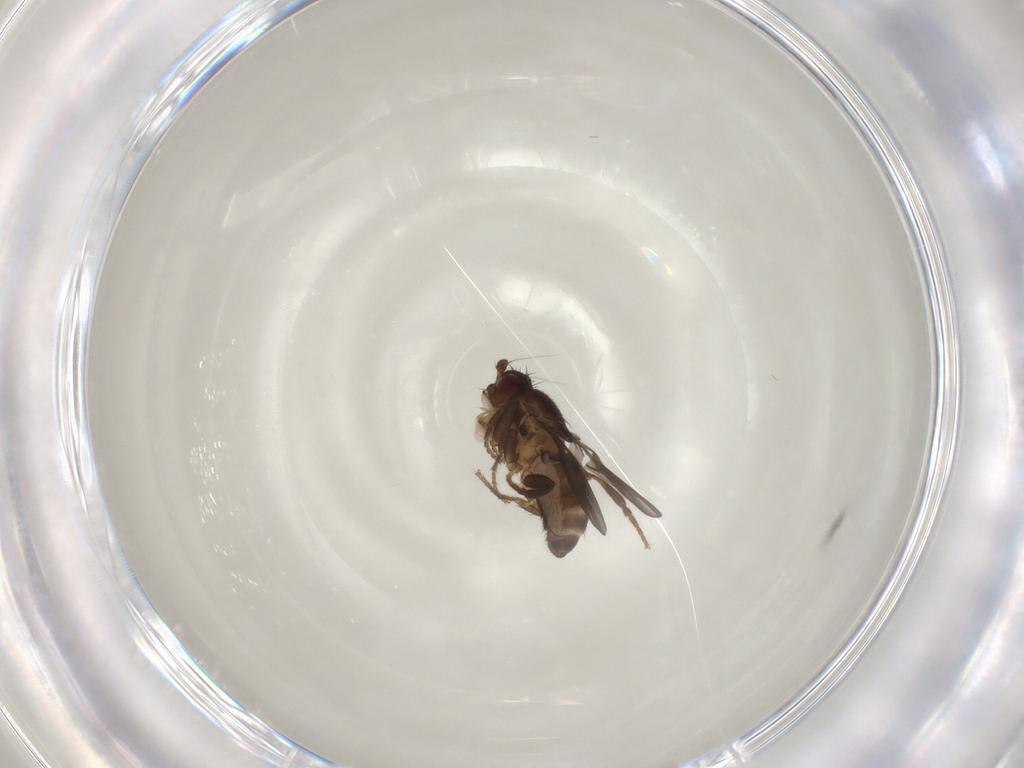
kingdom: Animalia
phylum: Arthropoda
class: Insecta
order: Diptera
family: Sphaeroceridae
